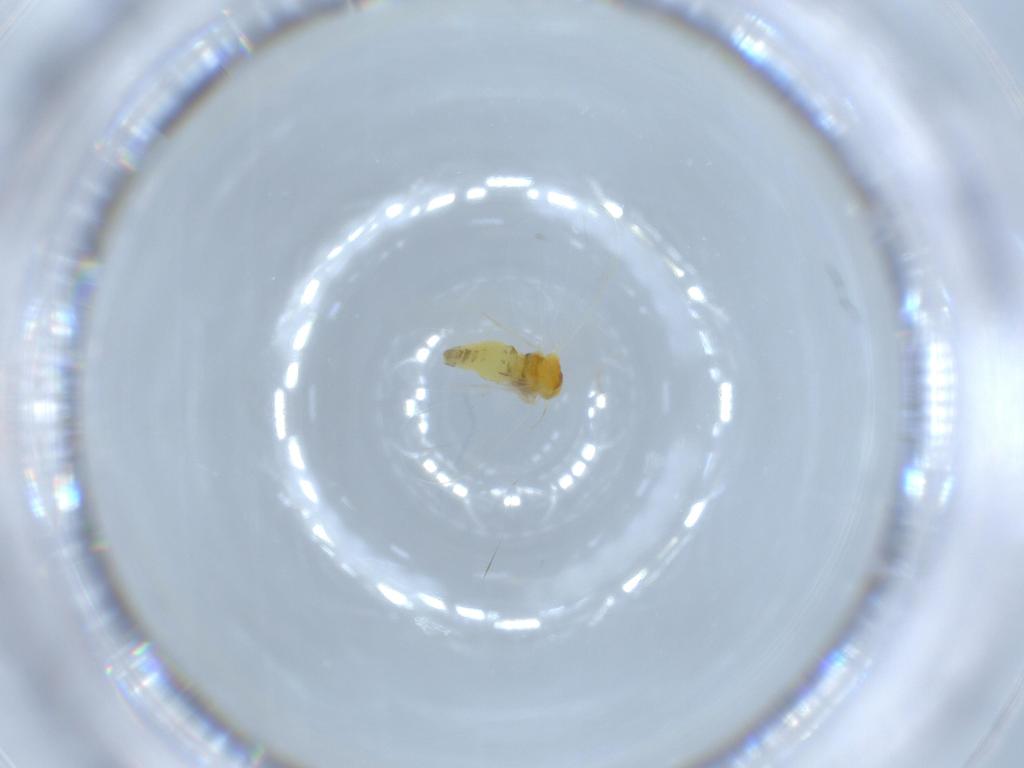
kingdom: Animalia
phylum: Arthropoda
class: Insecta
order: Hemiptera
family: Aleyrodidae
